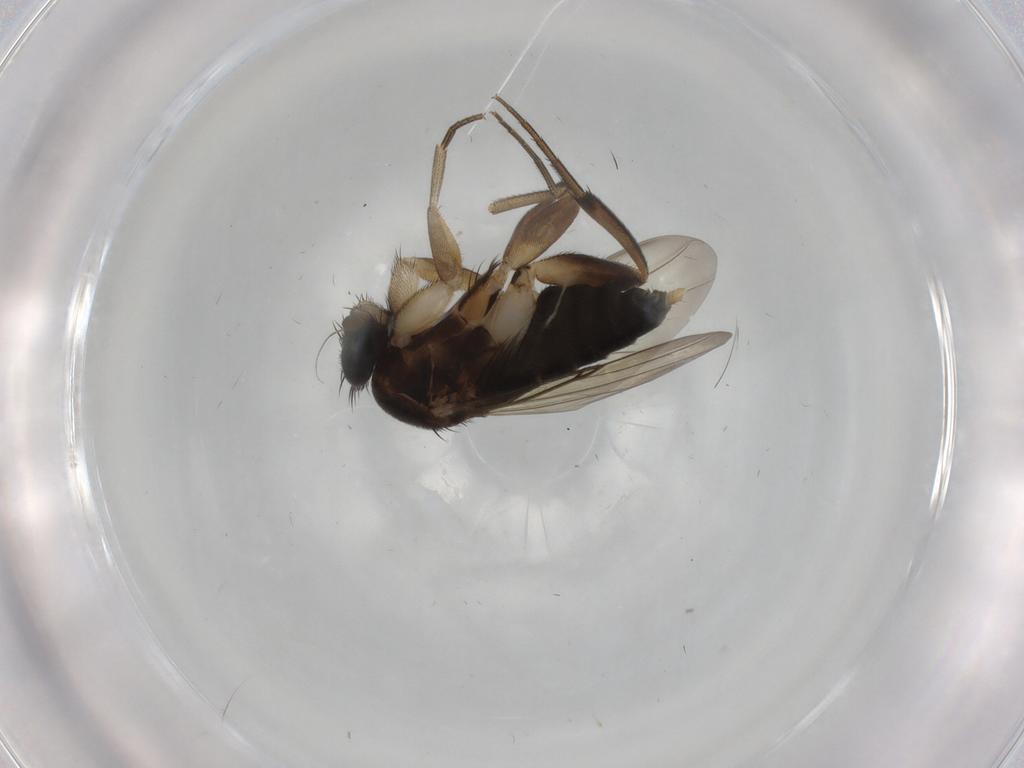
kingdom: Animalia
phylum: Arthropoda
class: Insecta
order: Diptera
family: Phoridae
